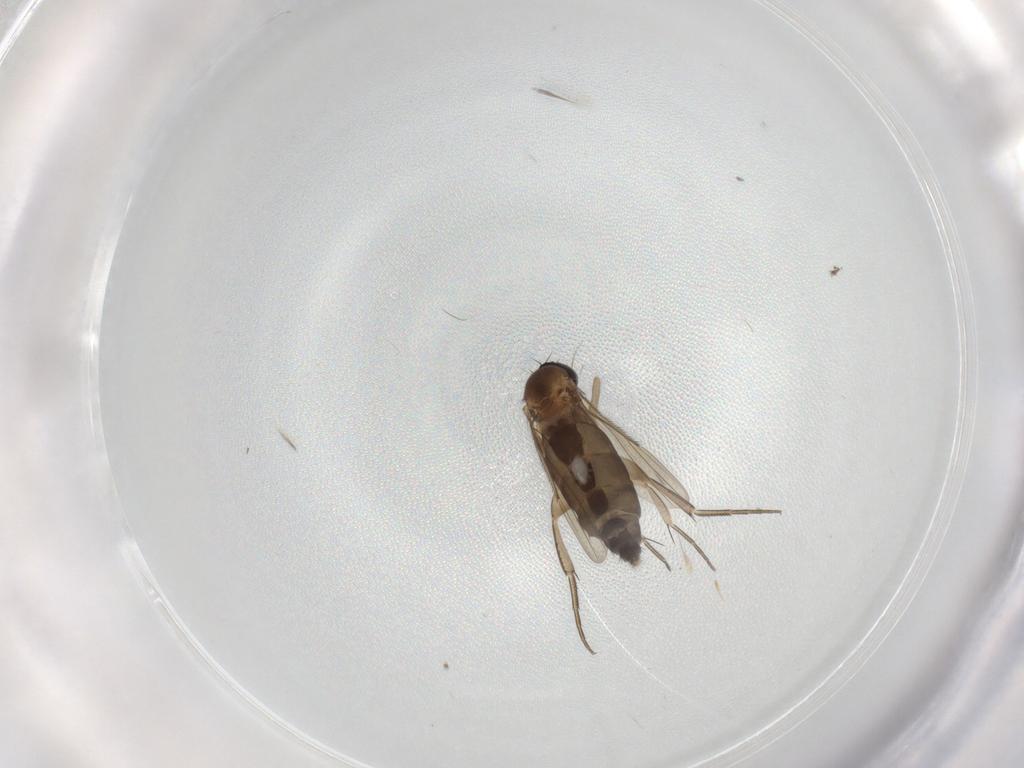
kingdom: Animalia
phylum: Arthropoda
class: Insecta
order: Diptera
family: Phoridae
